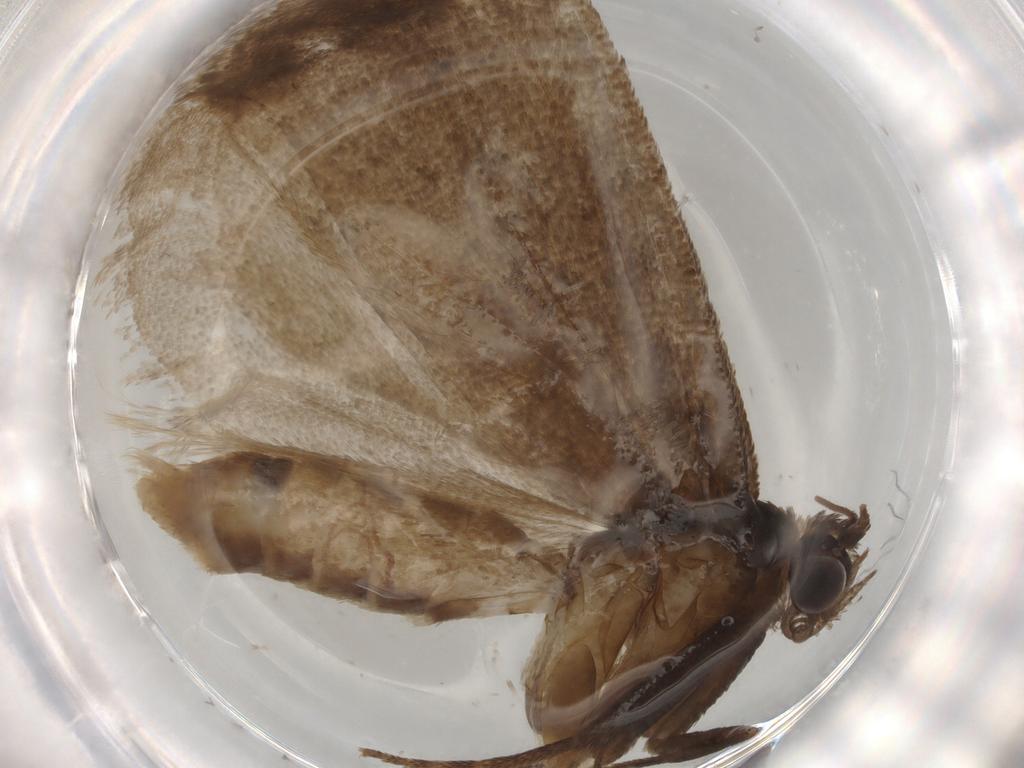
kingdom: Animalia
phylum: Arthropoda
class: Insecta
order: Lepidoptera
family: Tortricidae
